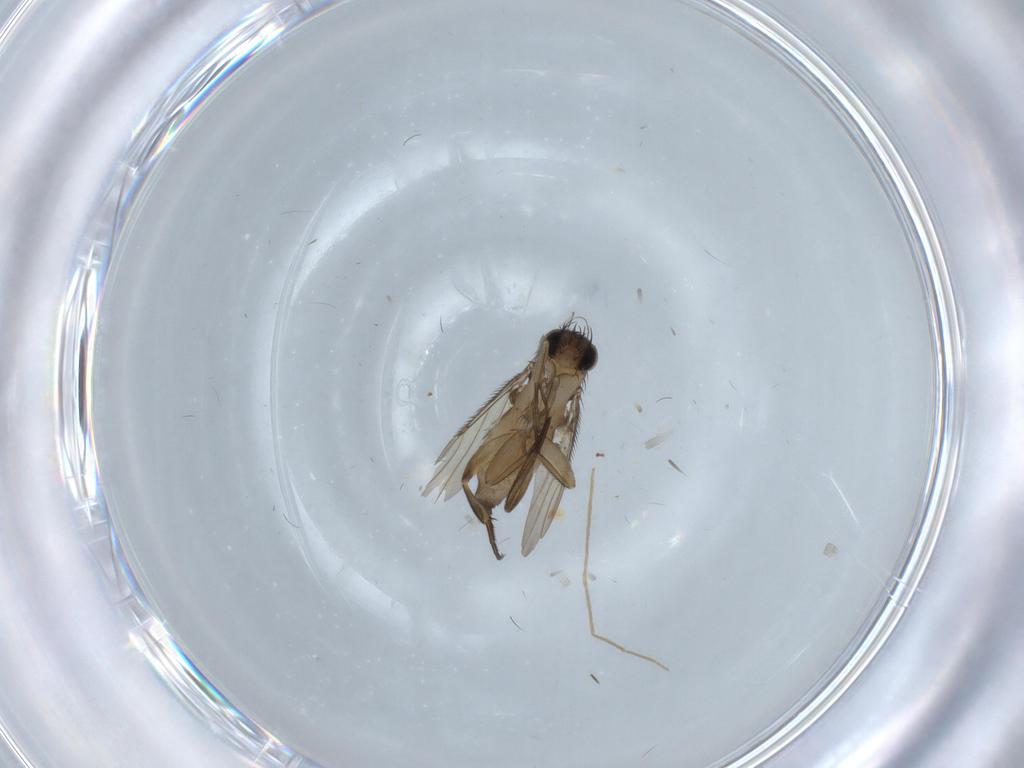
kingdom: Animalia
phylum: Arthropoda
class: Insecta
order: Diptera
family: Phoridae
